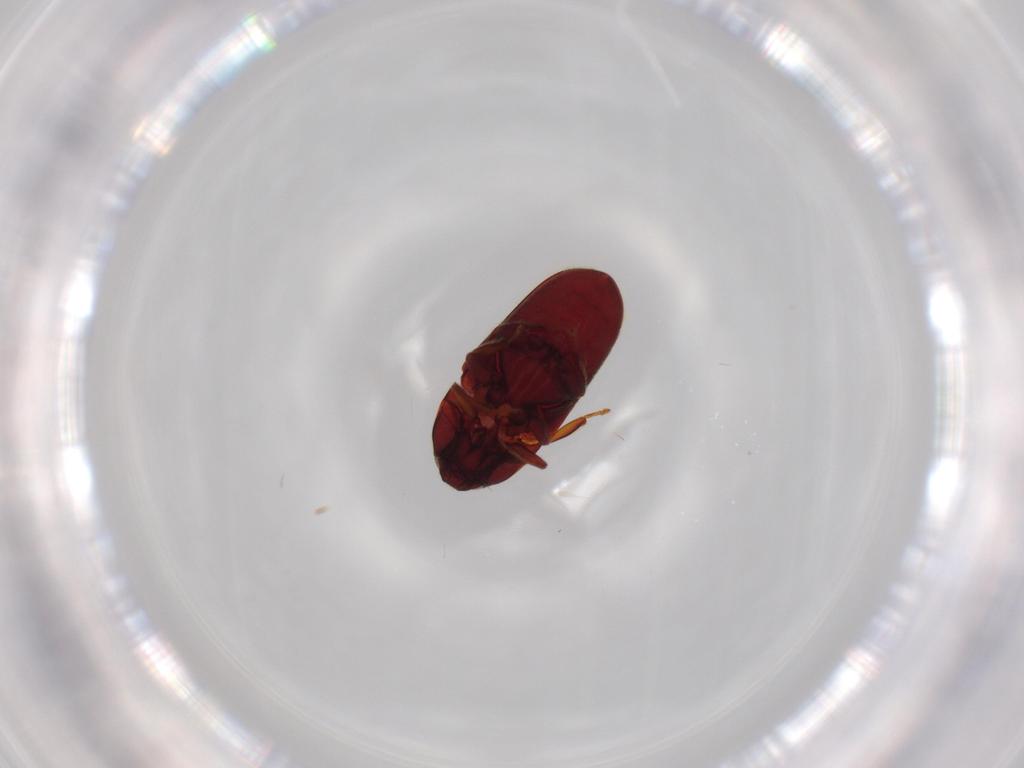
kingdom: Animalia
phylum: Arthropoda
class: Insecta
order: Coleoptera
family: Throscidae
